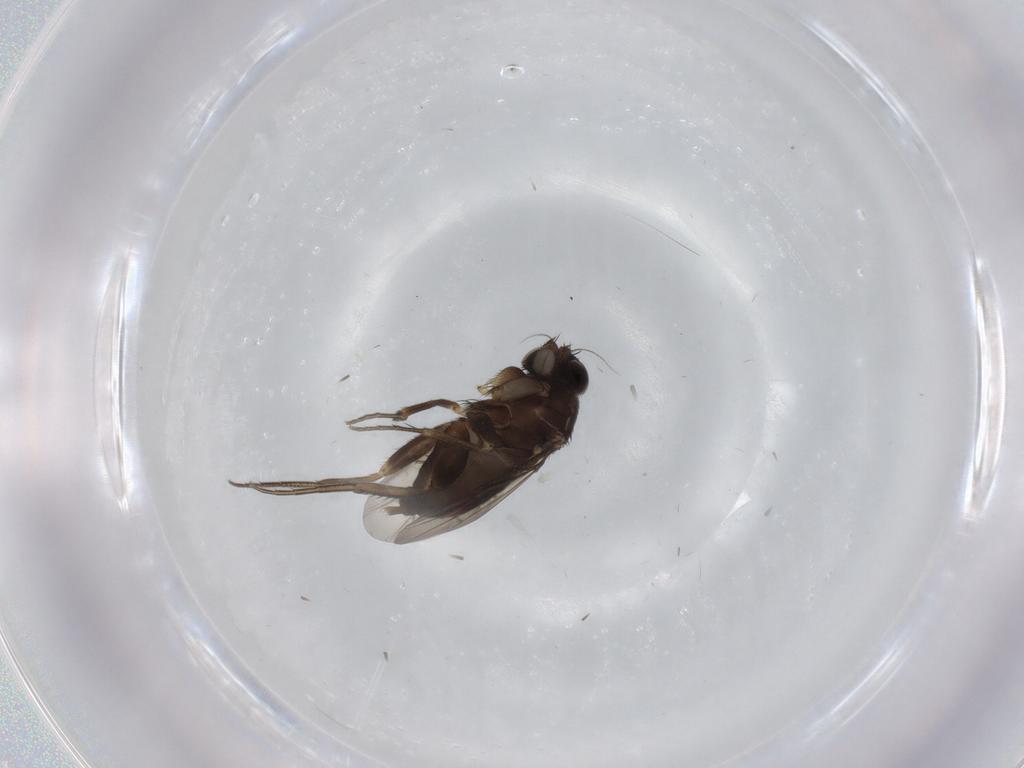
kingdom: Animalia
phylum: Arthropoda
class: Insecta
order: Diptera
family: Phoridae
